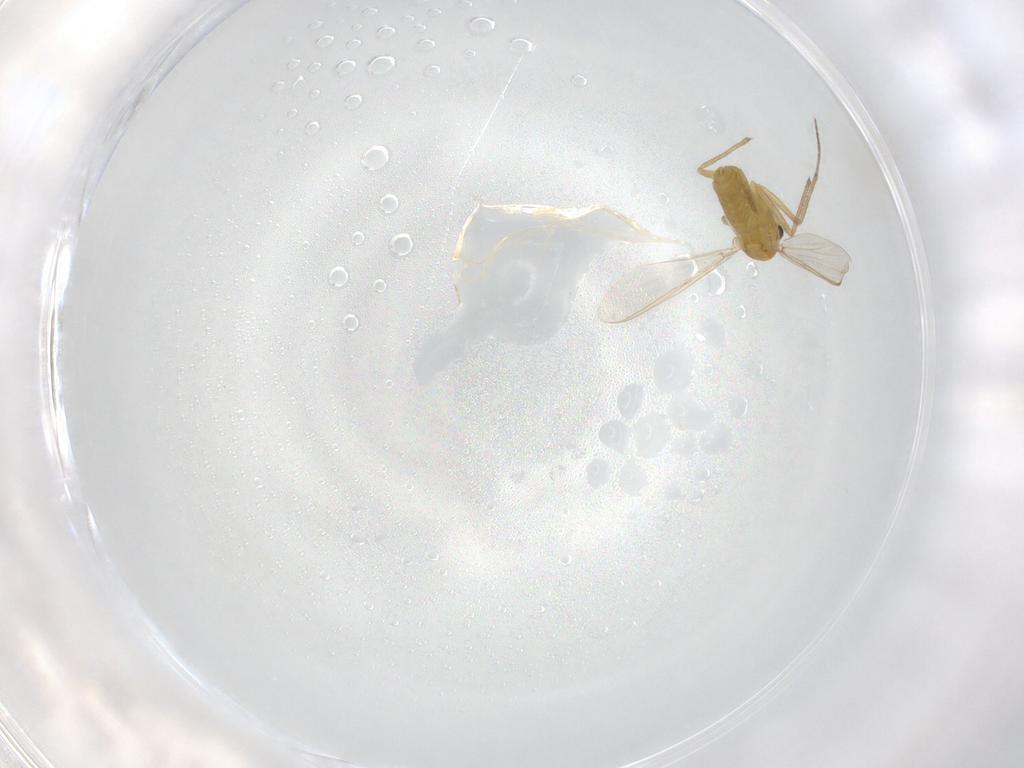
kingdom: Animalia
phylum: Arthropoda
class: Insecta
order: Diptera
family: Chironomidae
